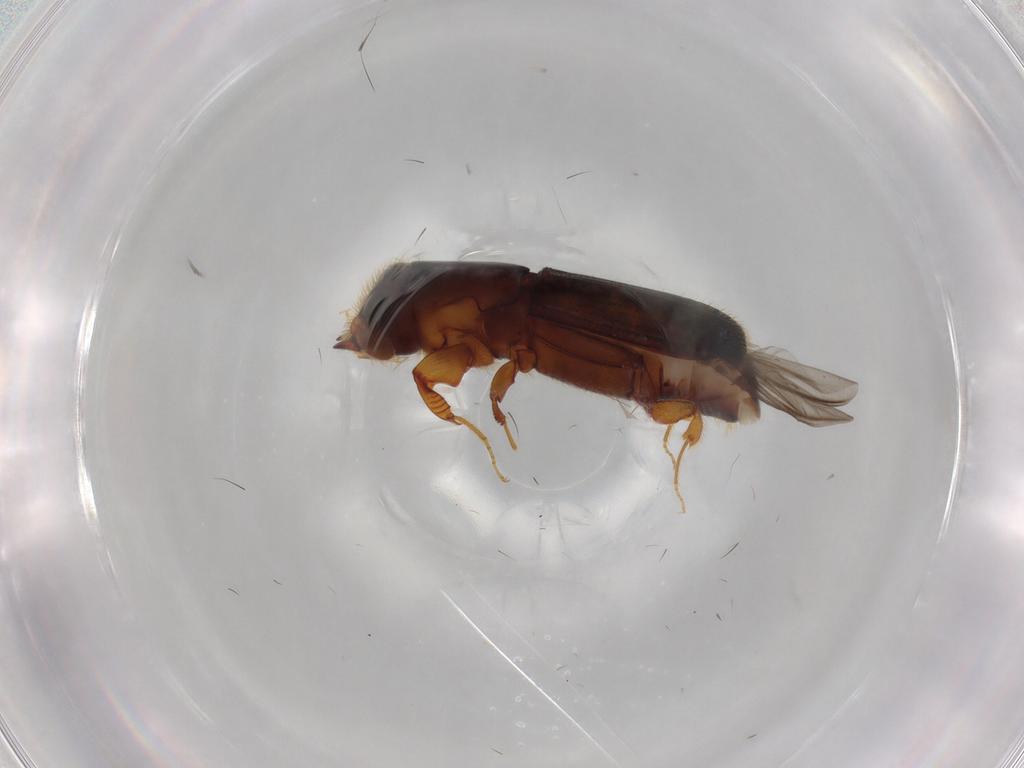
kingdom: Animalia
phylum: Arthropoda
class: Insecta
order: Coleoptera
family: Curculionidae
